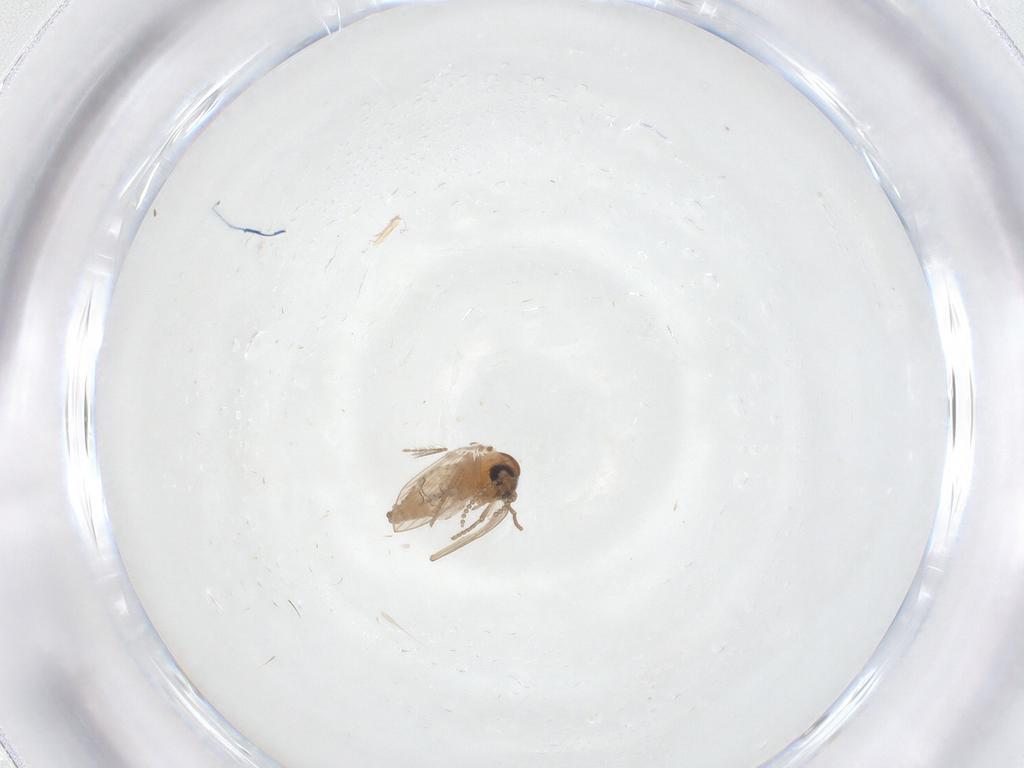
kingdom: Animalia
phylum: Arthropoda
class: Insecta
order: Diptera
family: Psychodidae
